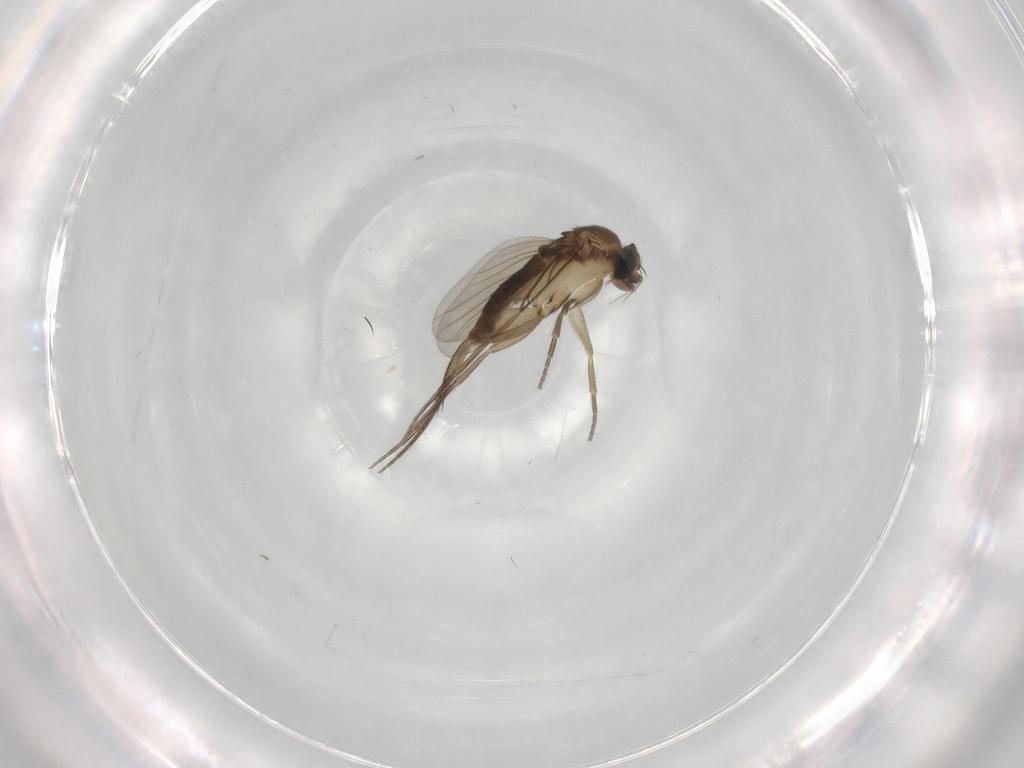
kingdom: Animalia
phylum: Arthropoda
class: Insecta
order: Diptera
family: Phoridae
